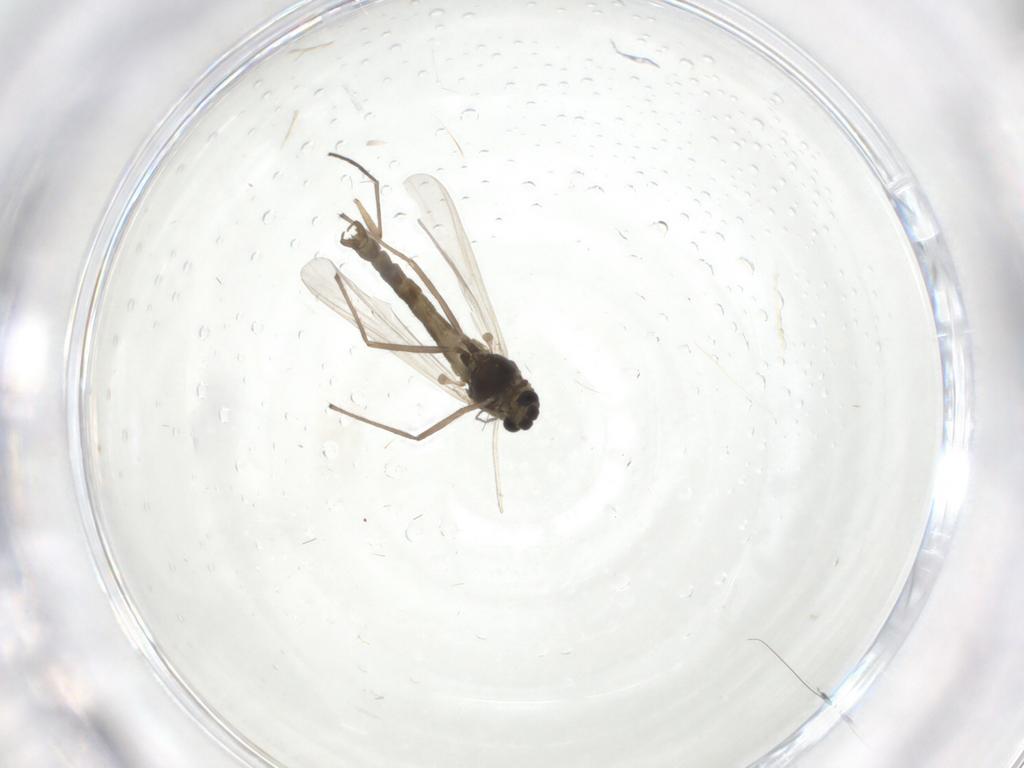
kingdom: Animalia
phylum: Arthropoda
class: Insecta
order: Diptera
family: Chironomidae
